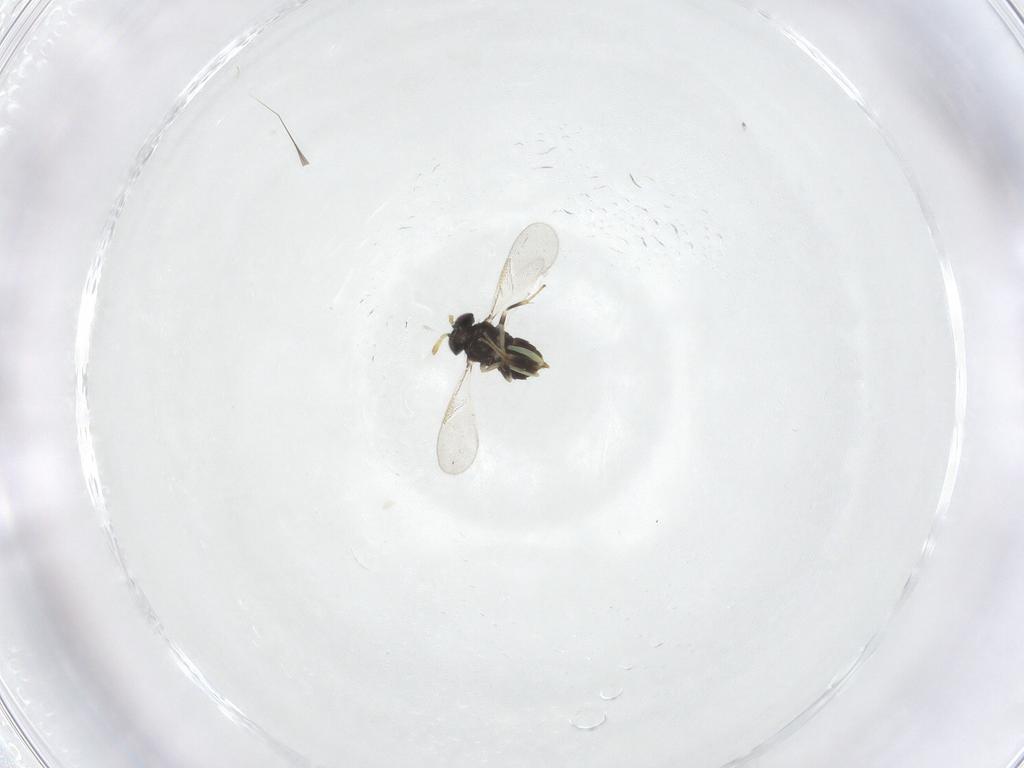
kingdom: Animalia
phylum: Arthropoda
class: Insecta
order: Hymenoptera
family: Aphelinidae
